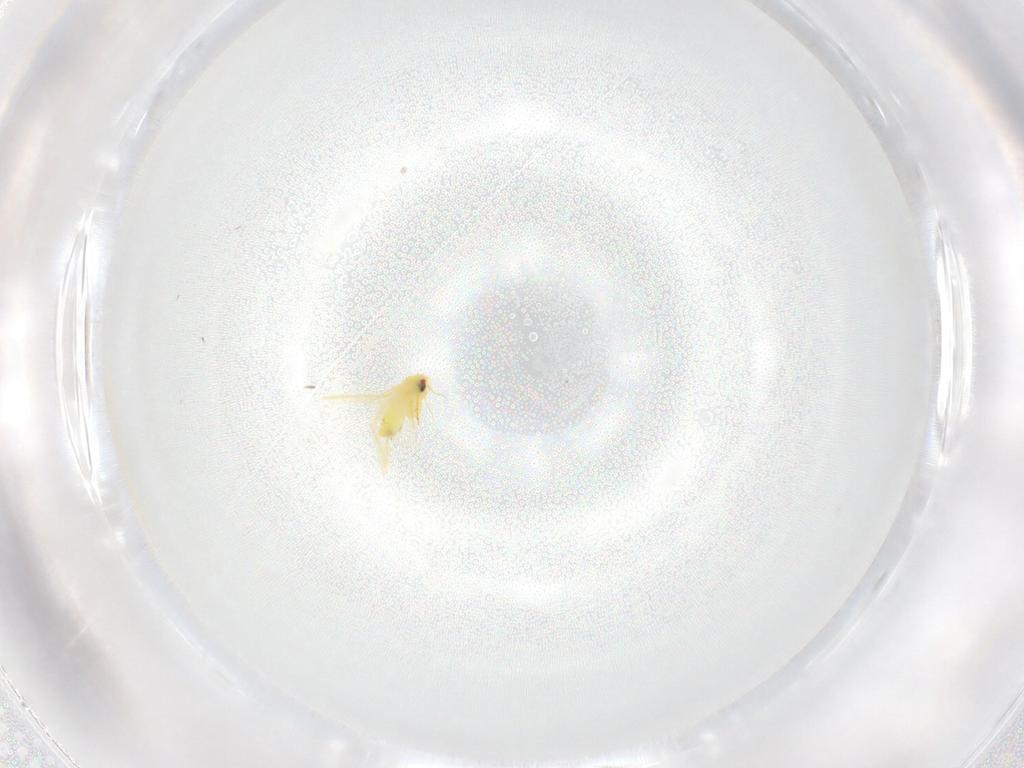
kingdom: Animalia
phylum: Arthropoda
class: Insecta
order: Hemiptera
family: Aleyrodidae
